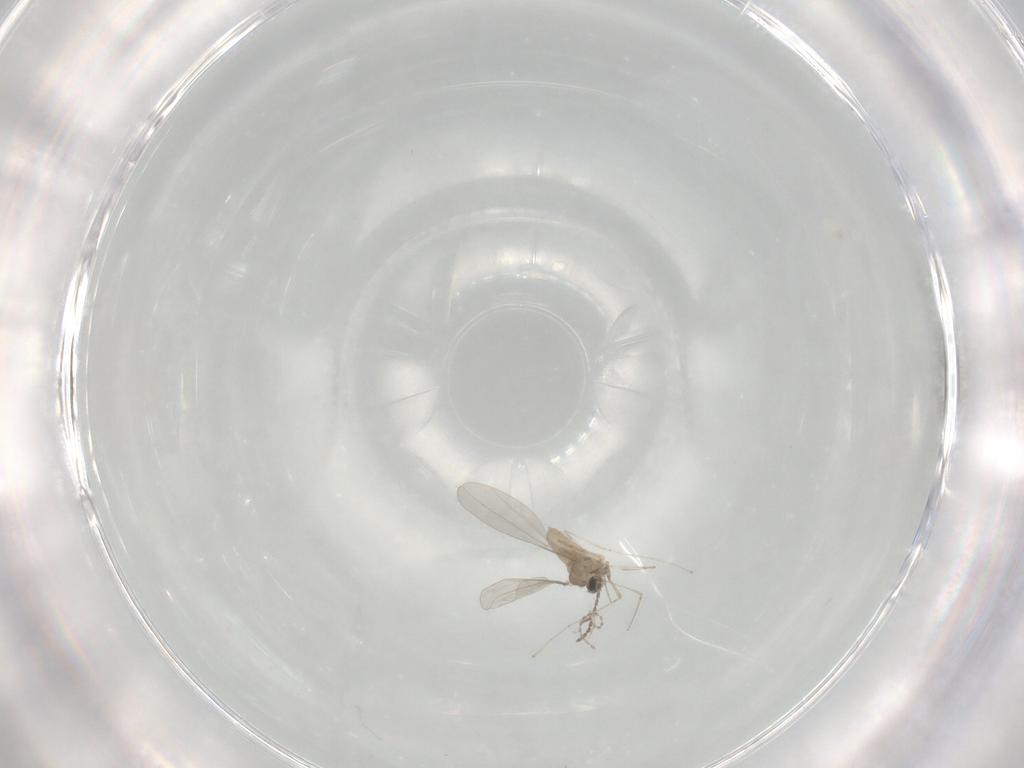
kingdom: Animalia
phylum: Arthropoda
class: Insecta
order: Diptera
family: Cecidomyiidae
